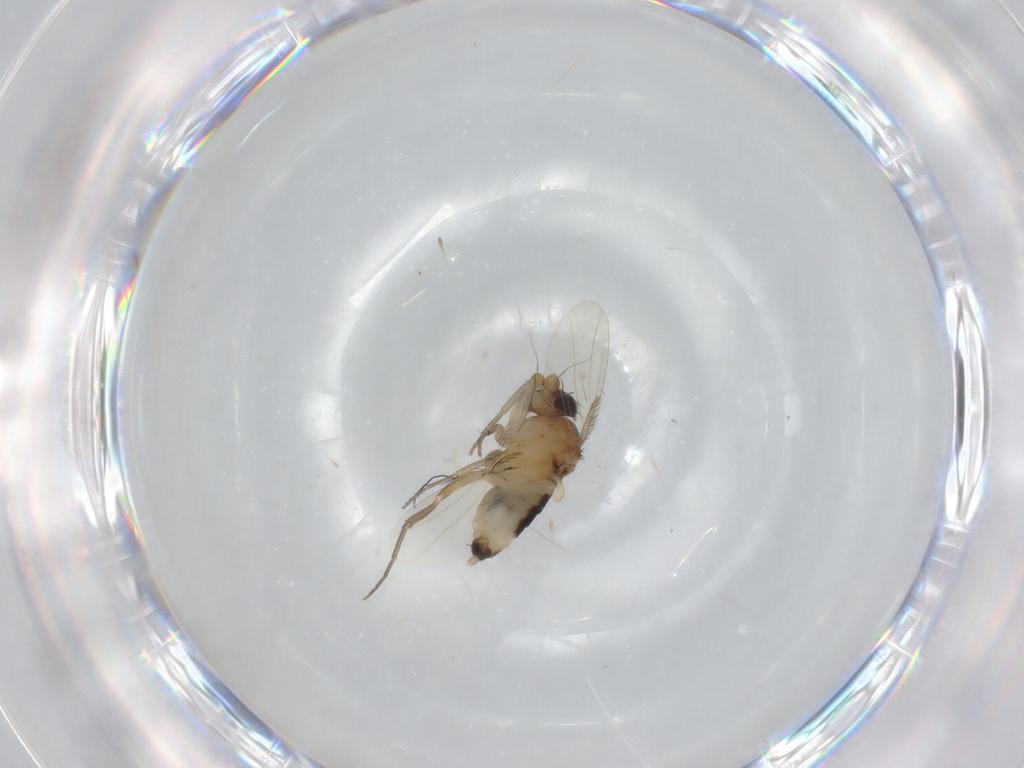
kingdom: Animalia
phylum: Arthropoda
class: Insecta
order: Diptera
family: Phoridae
